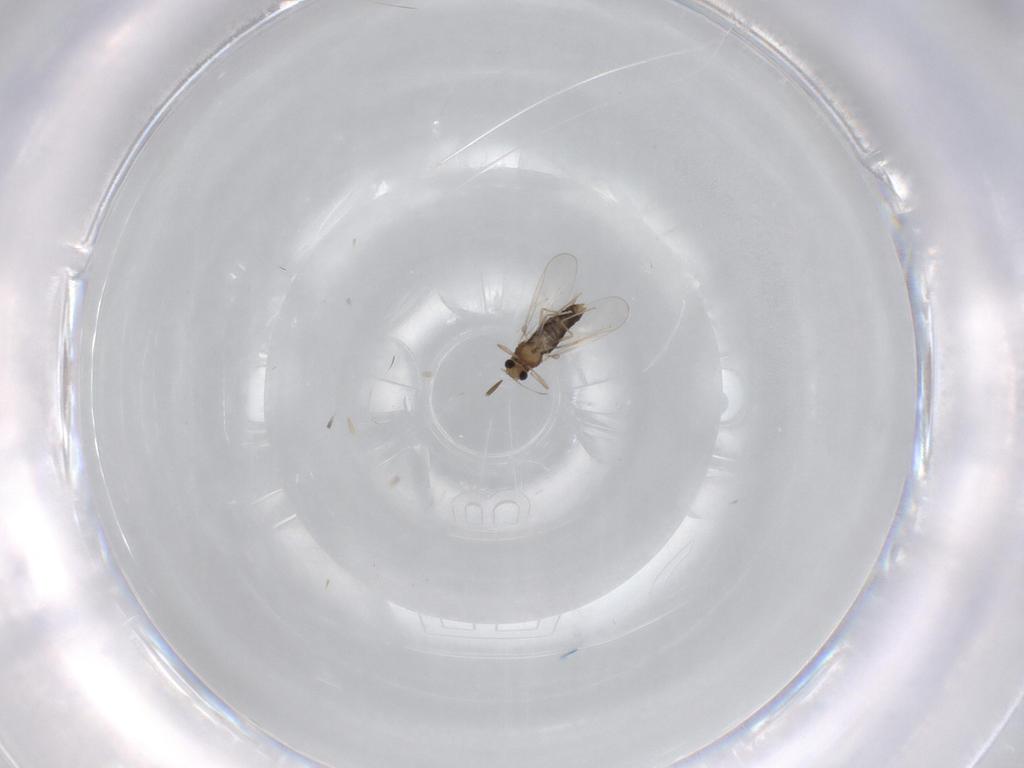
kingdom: Animalia
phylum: Arthropoda
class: Insecta
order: Diptera
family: Chironomidae
